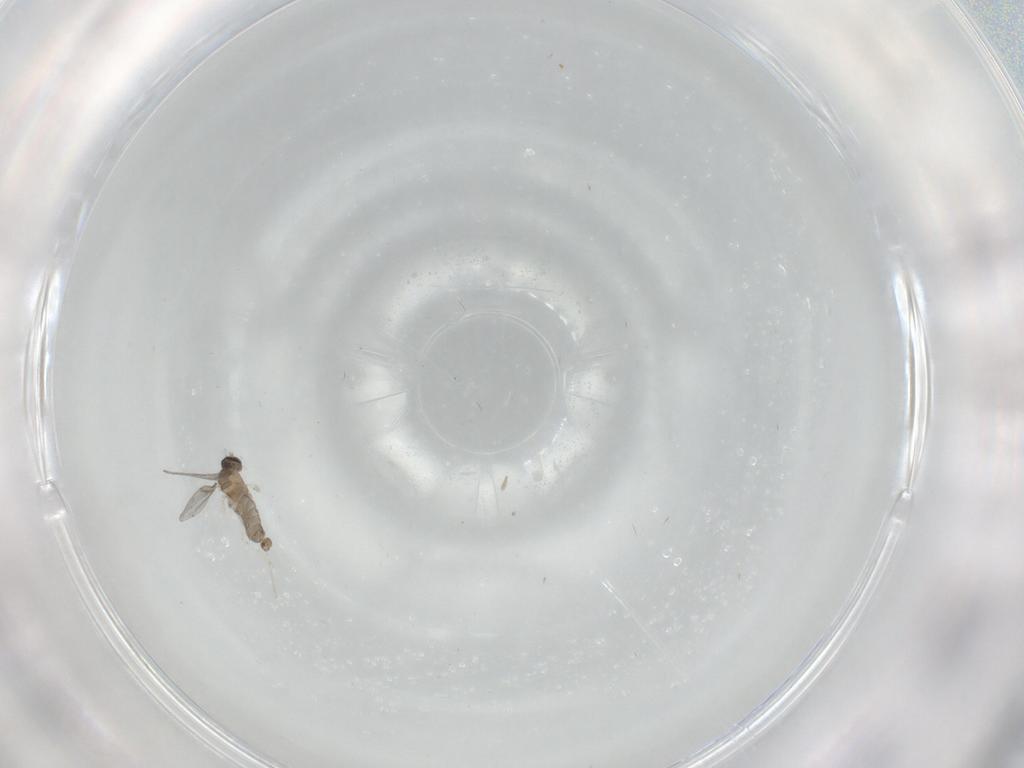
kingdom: Animalia
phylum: Arthropoda
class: Insecta
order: Diptera
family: Cecidomyiidae
